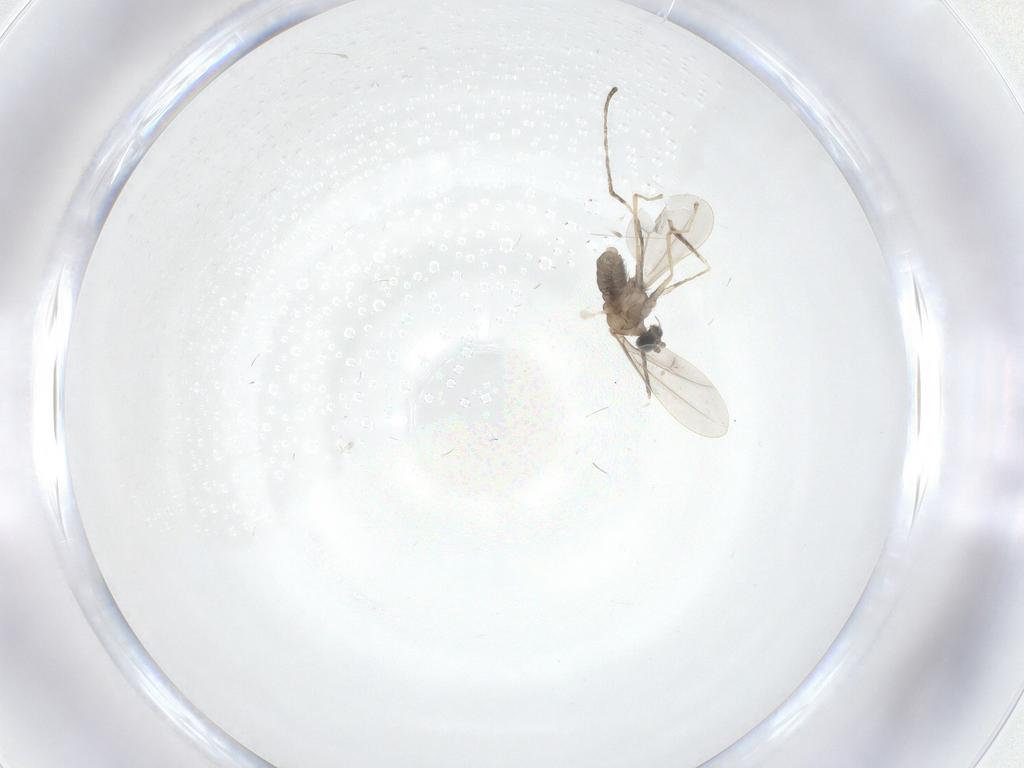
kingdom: Animalia
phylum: Arthropoda
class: Insecta
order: Diptera
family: Cecidomyiidae
